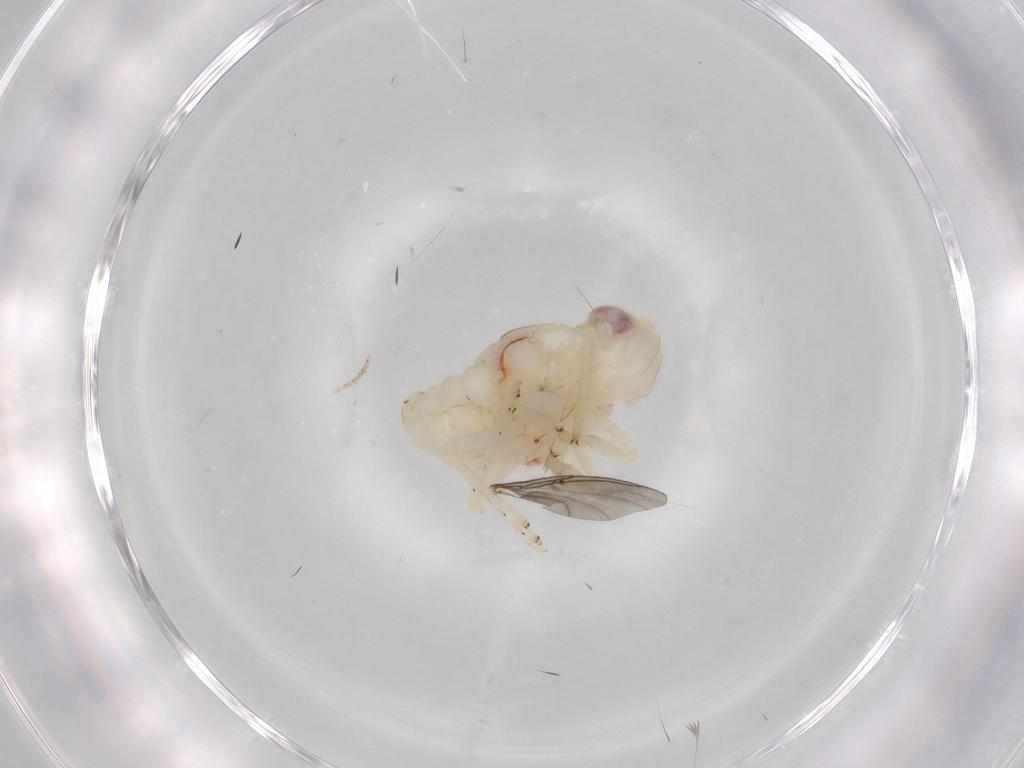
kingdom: Animalia
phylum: Arthropoda
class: Insecta
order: Hemiptera
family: Nogodinidae
